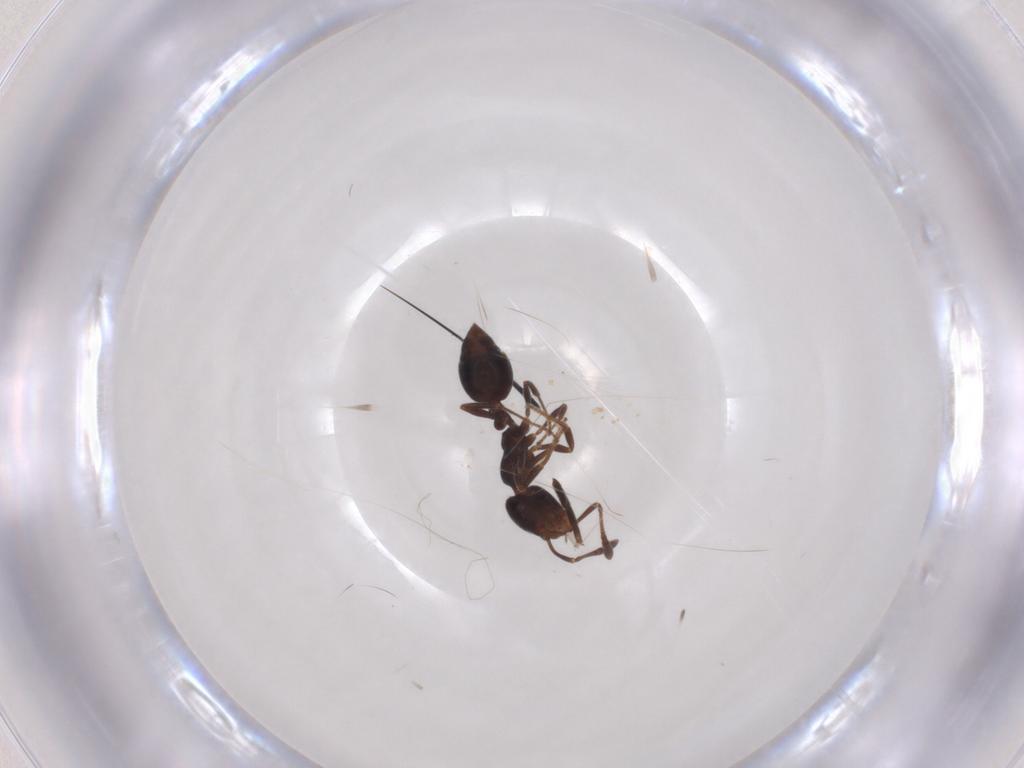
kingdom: Animalia
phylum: Arthropoda
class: Insecta
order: Hymenoptera
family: Formicidae
